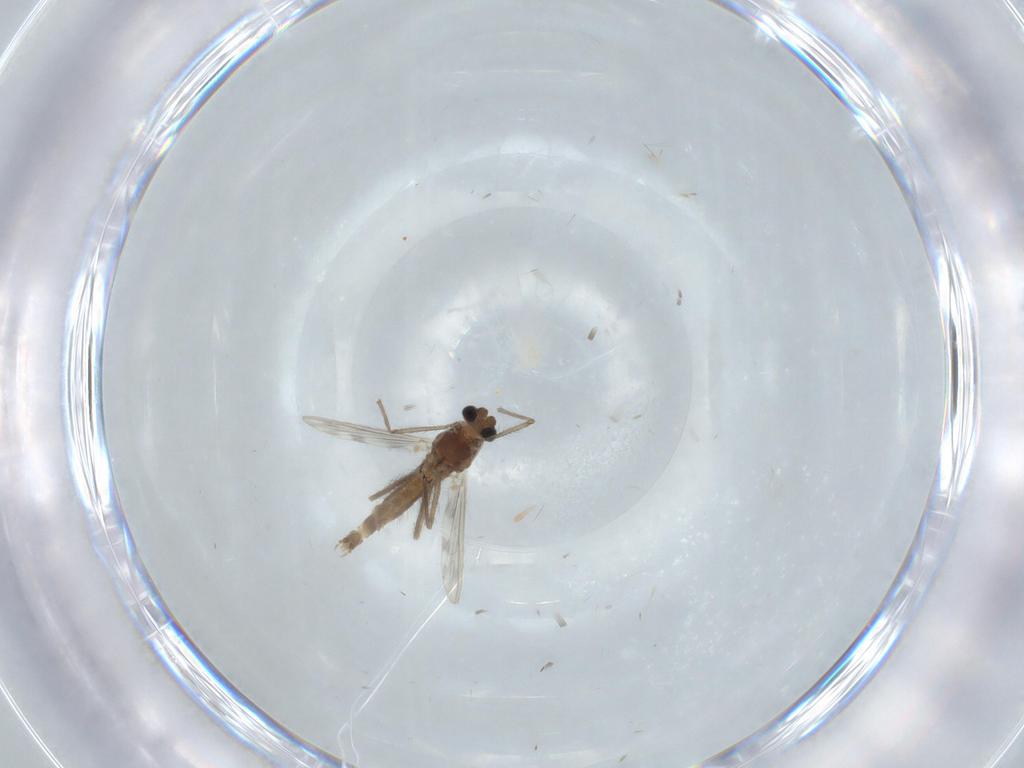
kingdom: Animalia
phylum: Arthropoda
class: Insecta
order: Diptera
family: Chironomidae
